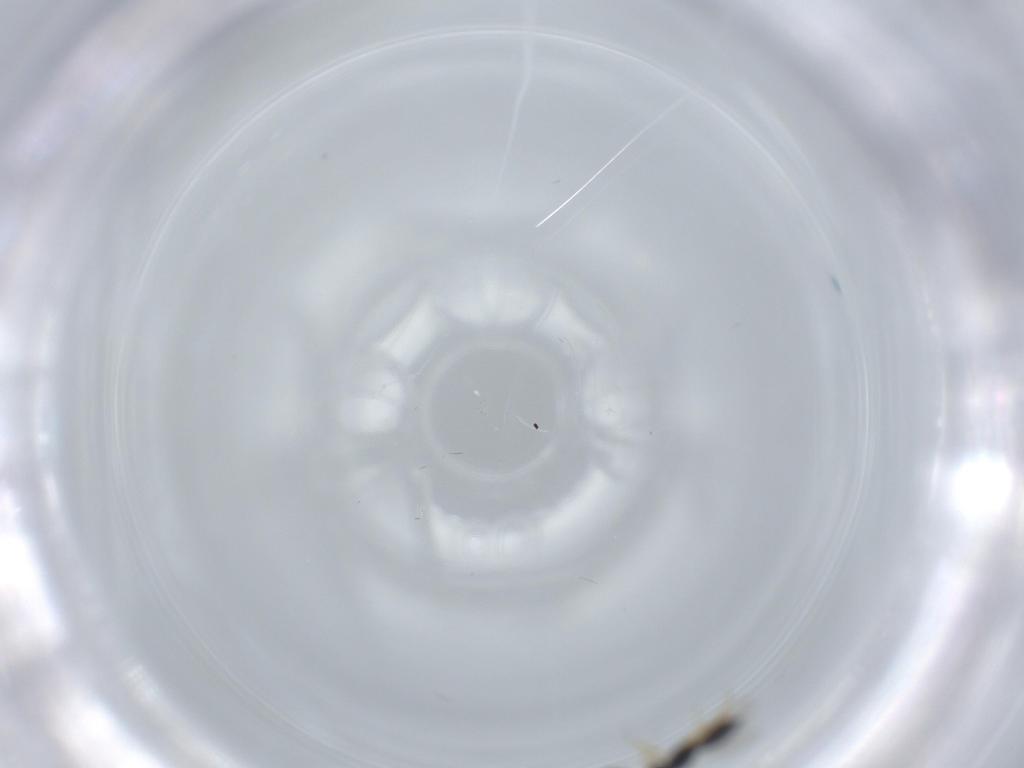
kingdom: Animalia
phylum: Arthropoda
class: Insecta
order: Hymenoptera
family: Scelionidae
